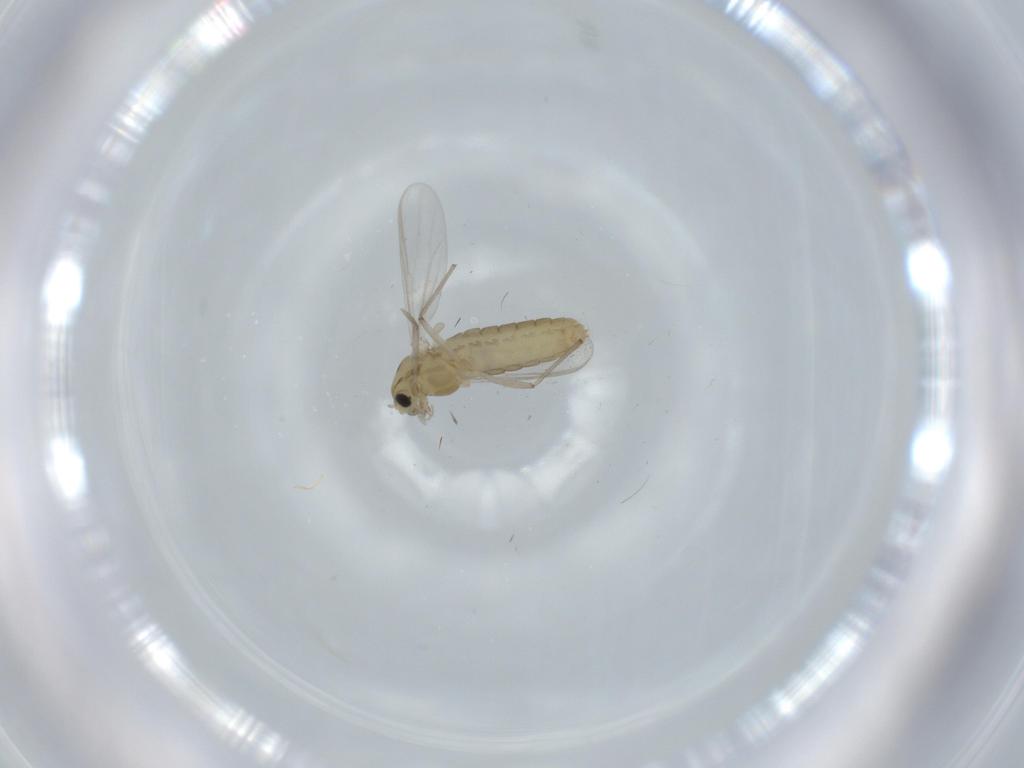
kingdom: Animalia
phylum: Arthropoda
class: Insecta
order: Diptera
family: Chironomidae
